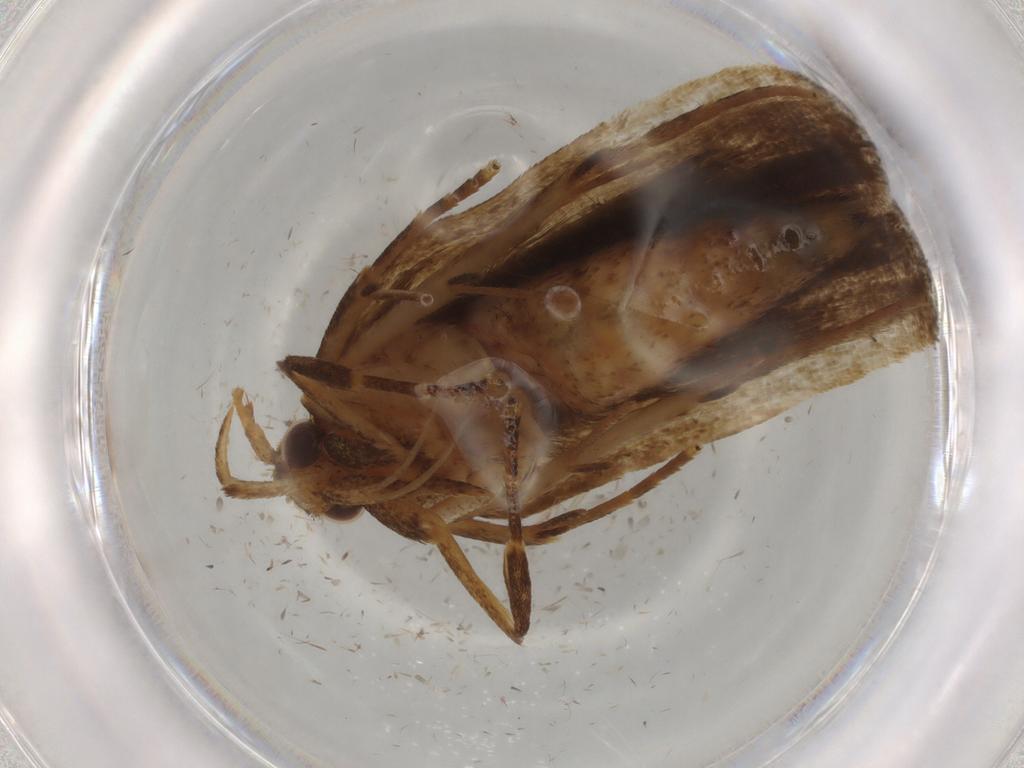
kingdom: Animalia
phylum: Arthropoda
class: Insecta
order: Lepidoptera
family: Autostichidae
